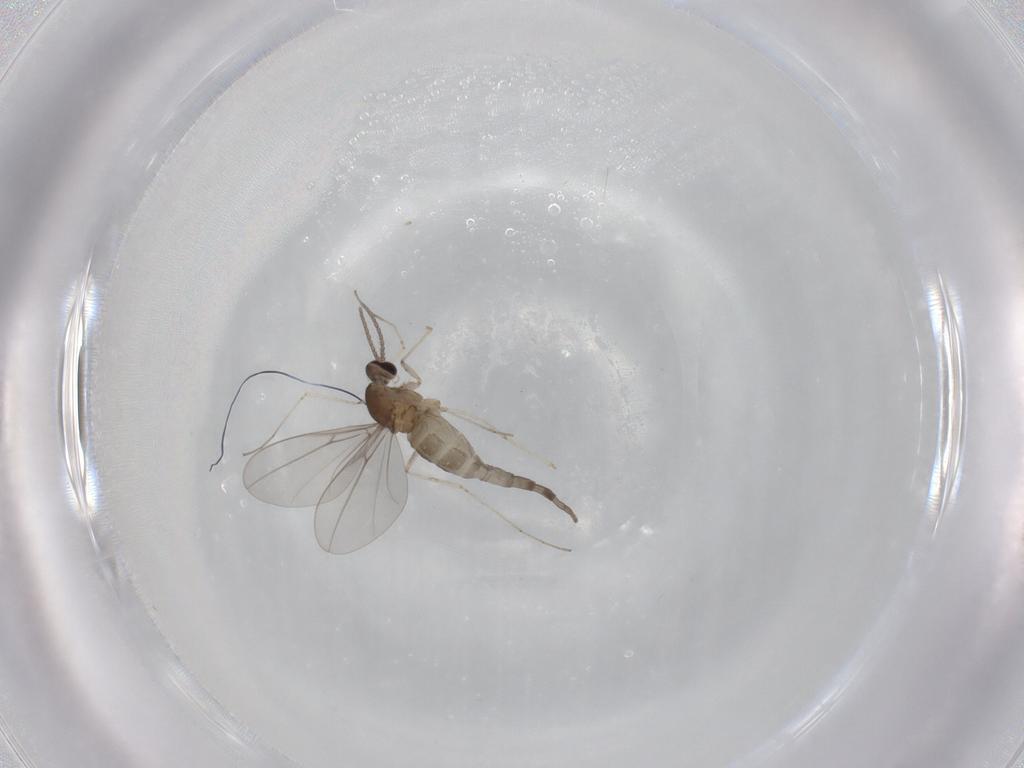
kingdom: Animalia
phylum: Arthropoda
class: Insecta
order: Diptera
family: Cecidomyiidae
